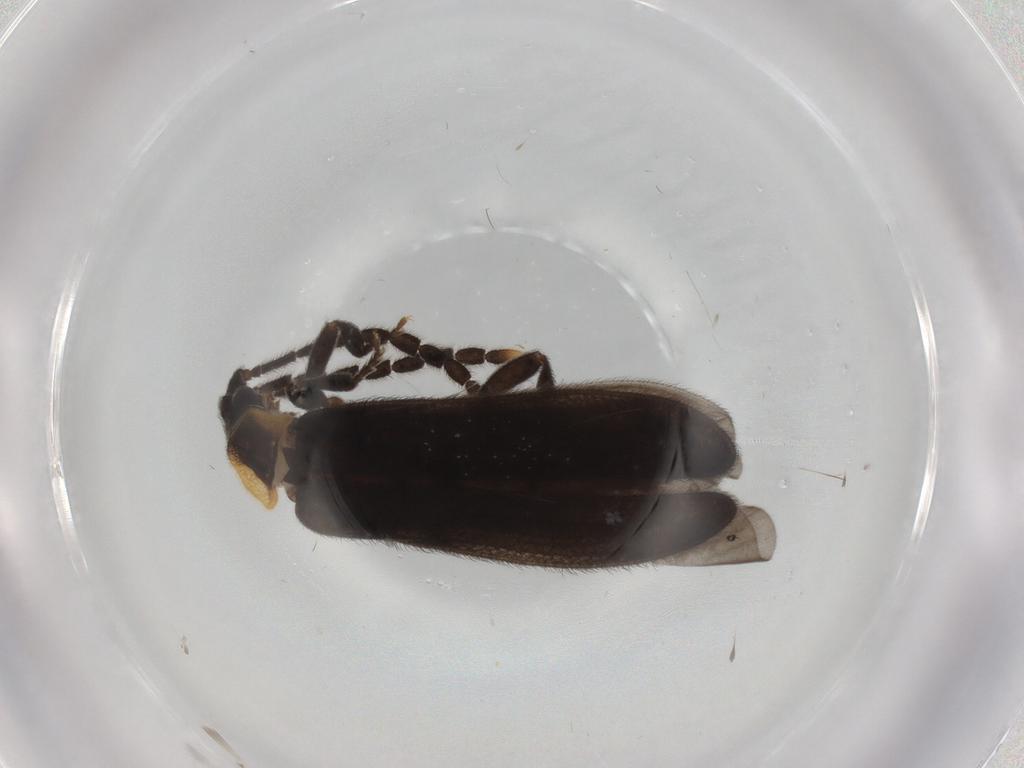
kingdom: Animalia
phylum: Arthropoda
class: Insecta
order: Coleoptera
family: Lycidae
